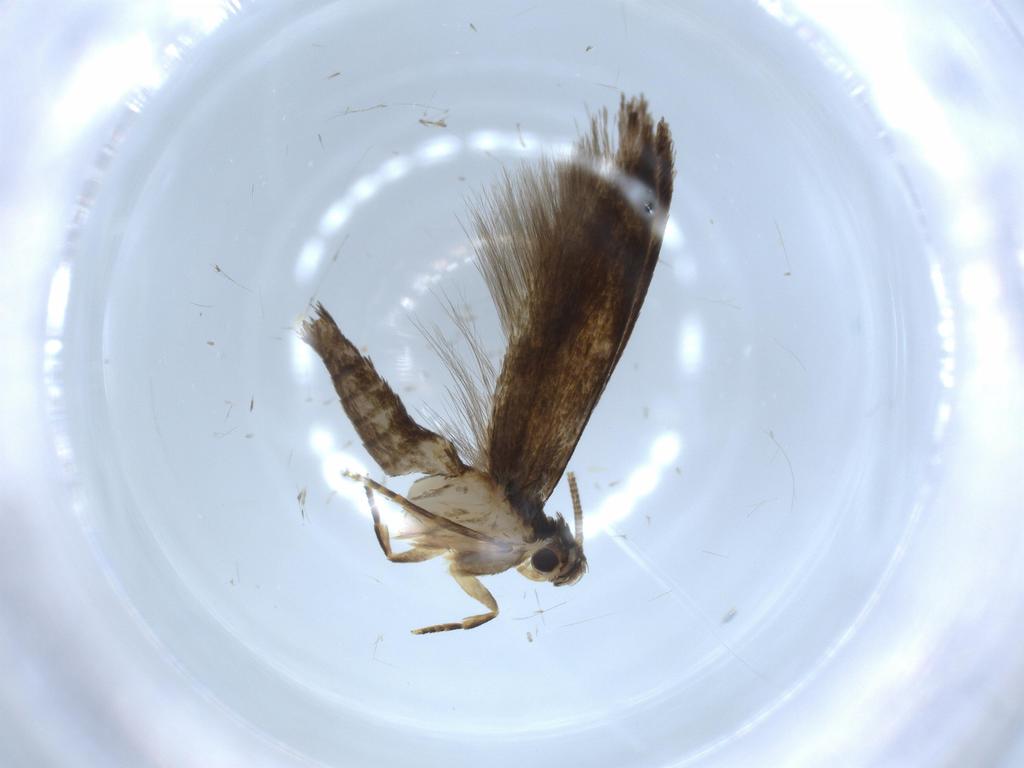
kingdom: Animalia
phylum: Arthropoda
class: Insecta
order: Lepidoptera
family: Tineidae
